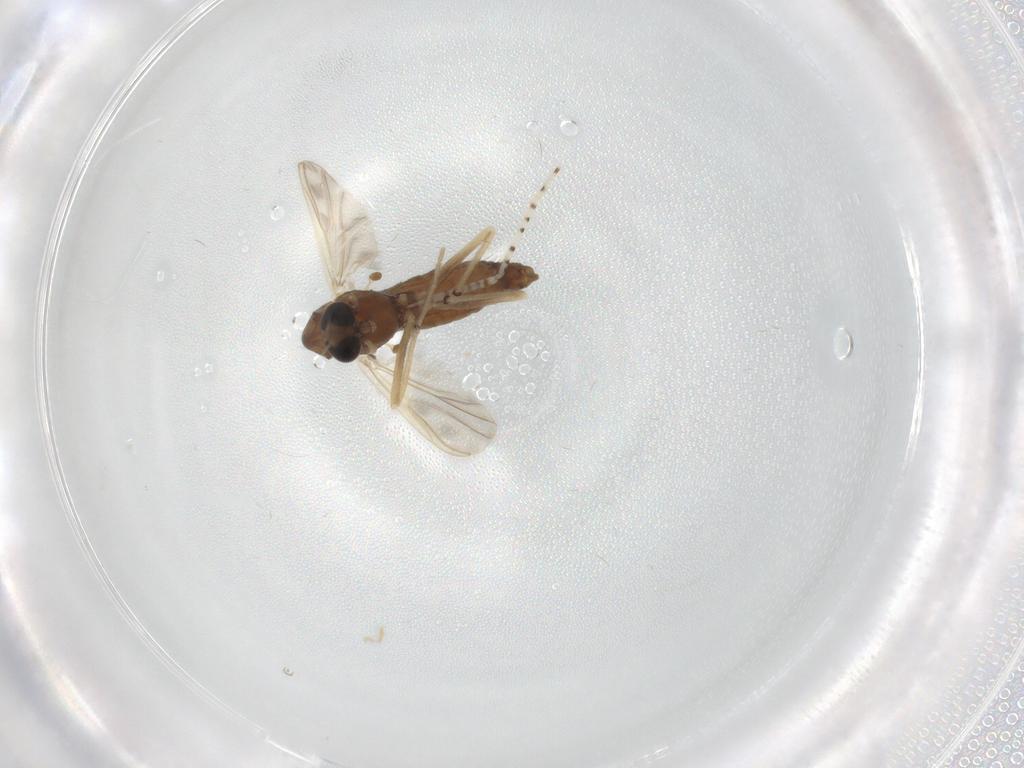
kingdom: Animalia
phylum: Arthropoda
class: Insecta
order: Diptera
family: Chironomidae
